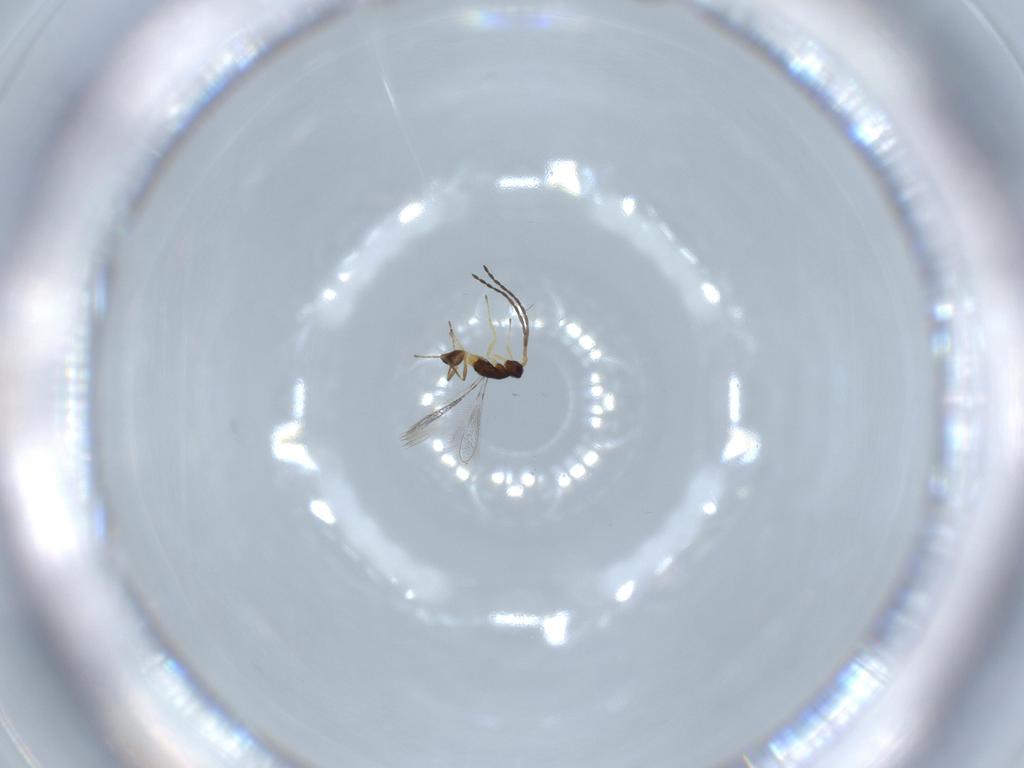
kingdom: Animalia
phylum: Arthropoda
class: Insecta
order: Hymenoptera
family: Mymaridae
